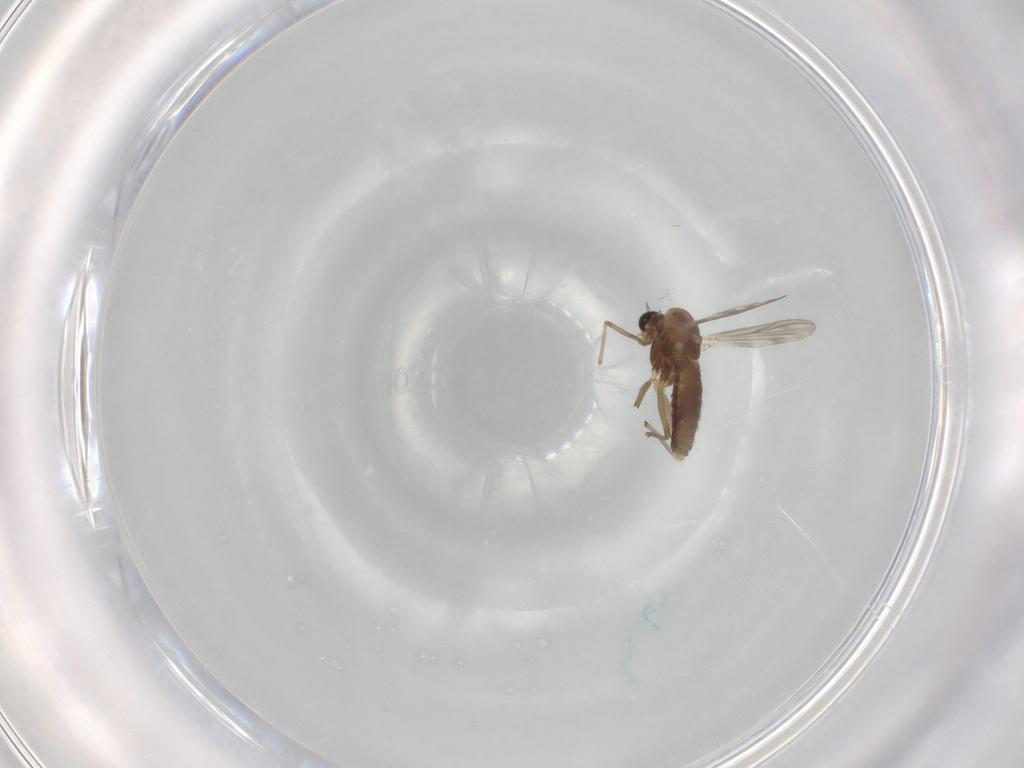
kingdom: Animalia
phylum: Arthropoda
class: Insecta
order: Diptera
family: Chironomidae
